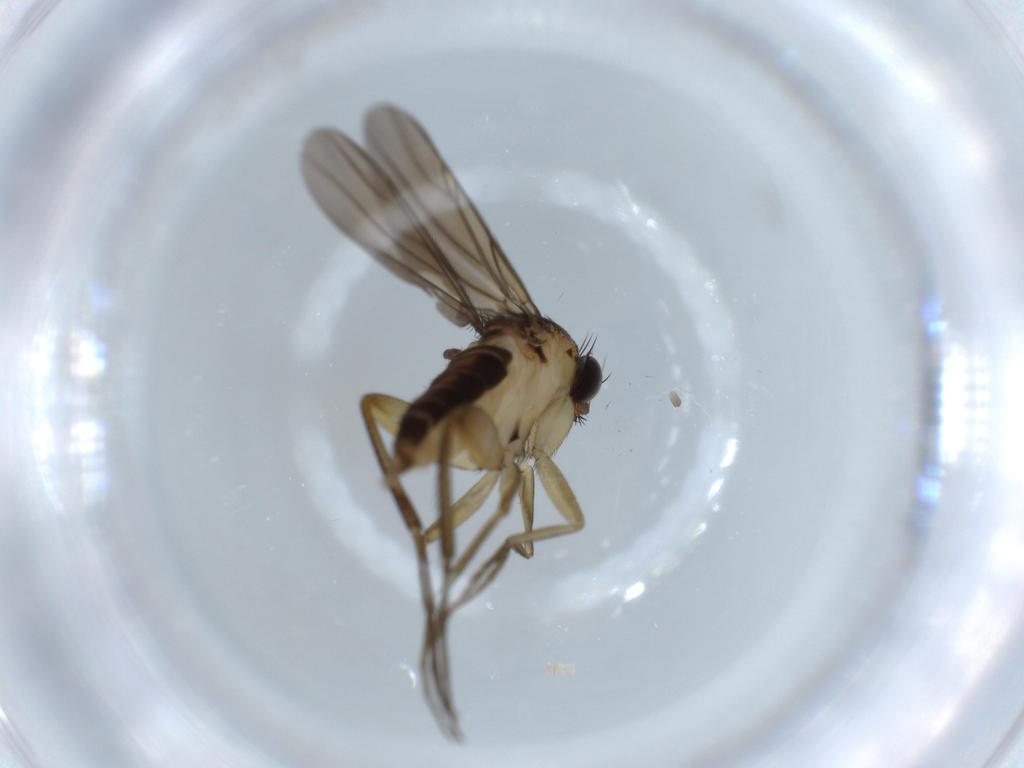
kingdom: Animalia
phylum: Arthropoda
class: Insecta
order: Diptera
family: Phoridae
